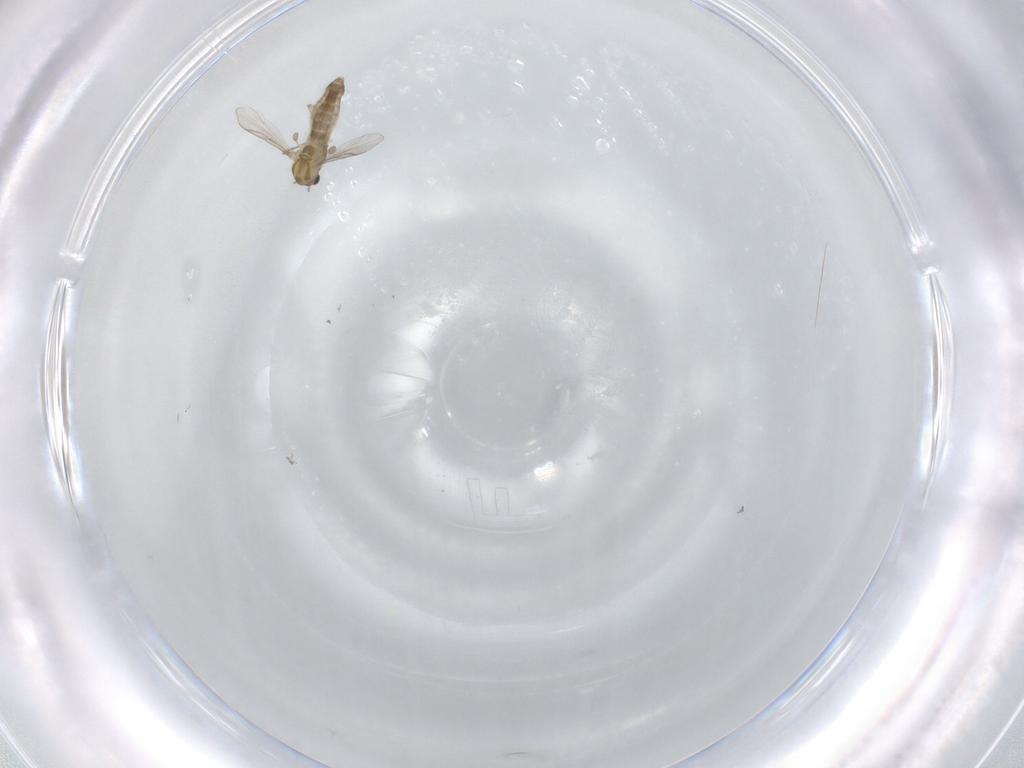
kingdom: Animalia
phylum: Arthropoda
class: Insecta
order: Diptera
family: Chironomidae
